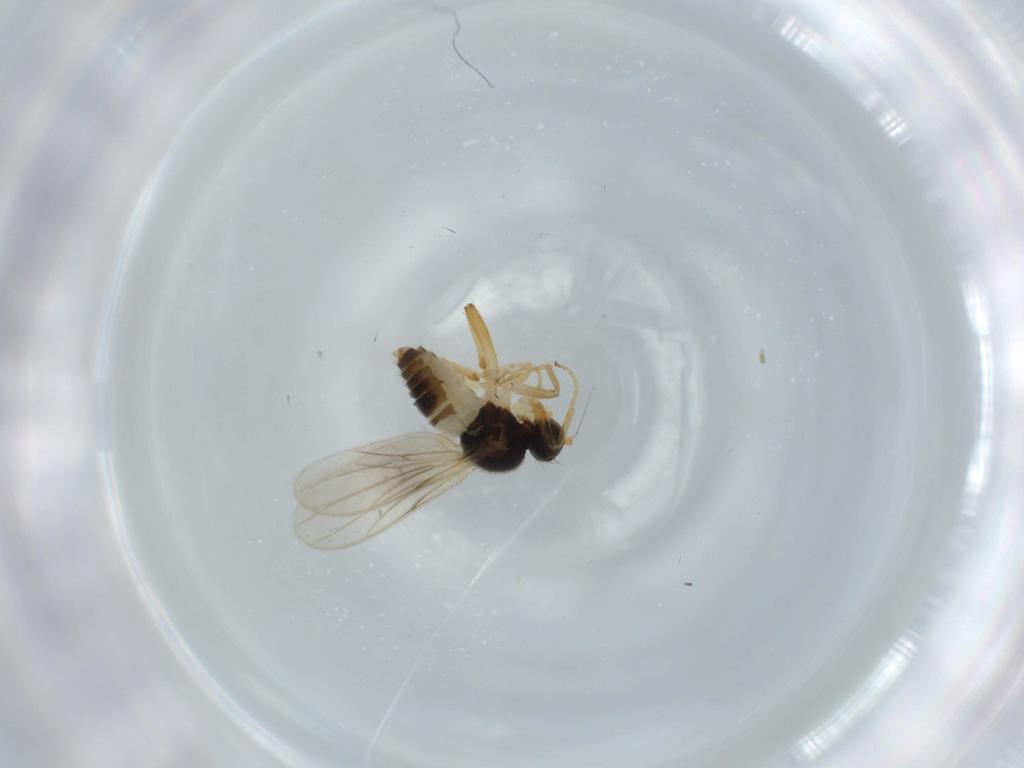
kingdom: Animalia
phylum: Arthropoda
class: Insecta
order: Diptera
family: Hybotidae
